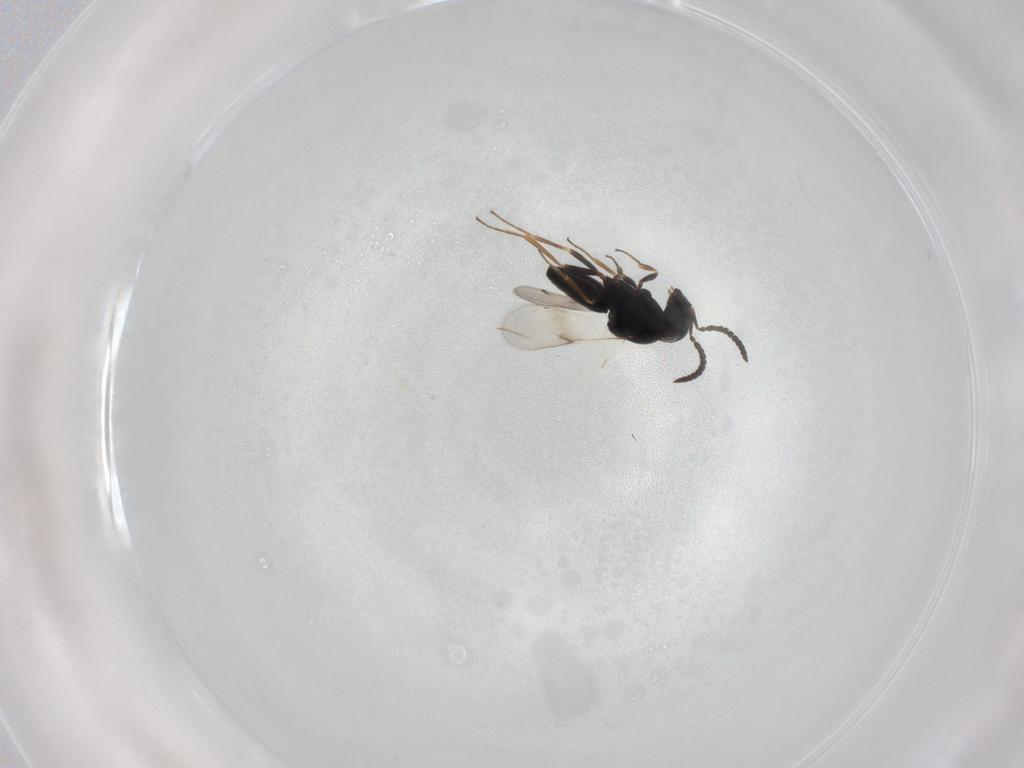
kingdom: Animalia
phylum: Arthropoda
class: Insecta
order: Hymenoptera
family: Scelionidae
